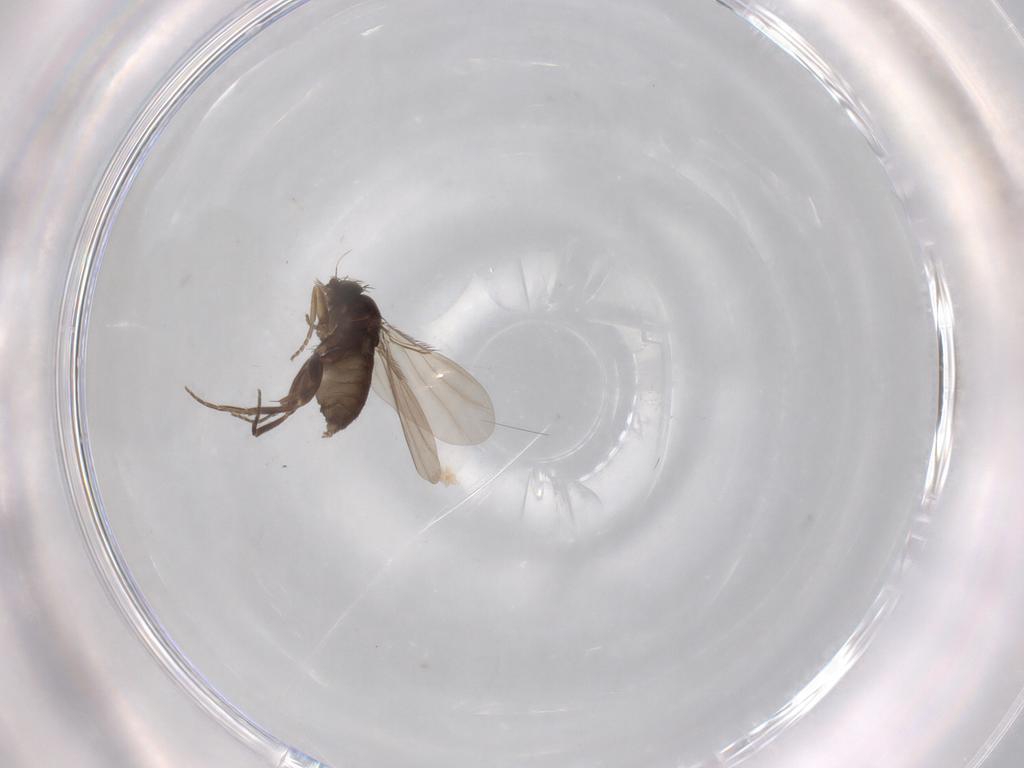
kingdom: Animalia
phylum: Arthropoda
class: Insecta
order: Diptera
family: Phoridae
